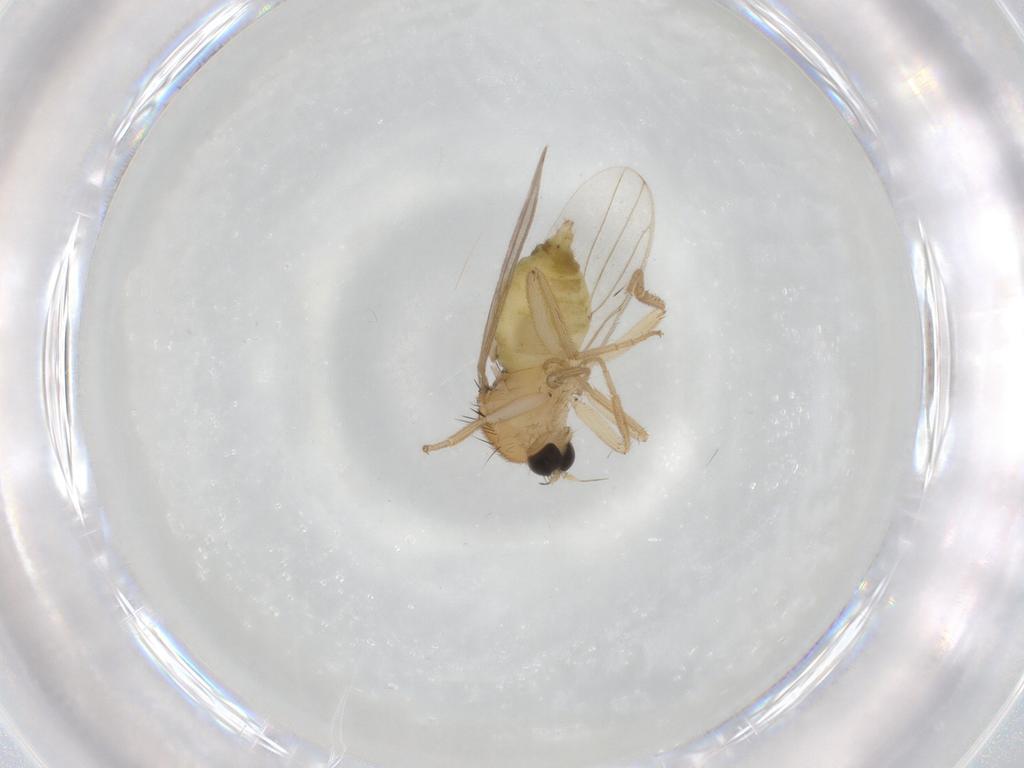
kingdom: Animalia
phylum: Arthropoda
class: Insecta
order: Diptera
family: Hybotidae
